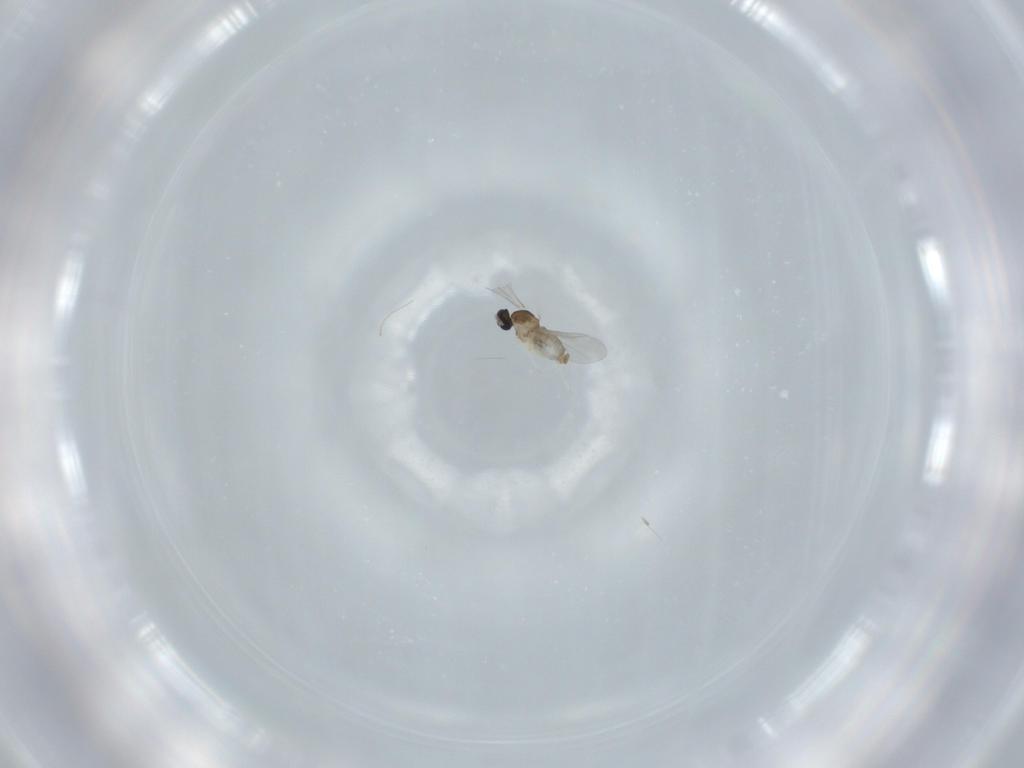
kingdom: Animalia
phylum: Arthropoda
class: Insecta
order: Diptera
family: Cecidomyiidae
